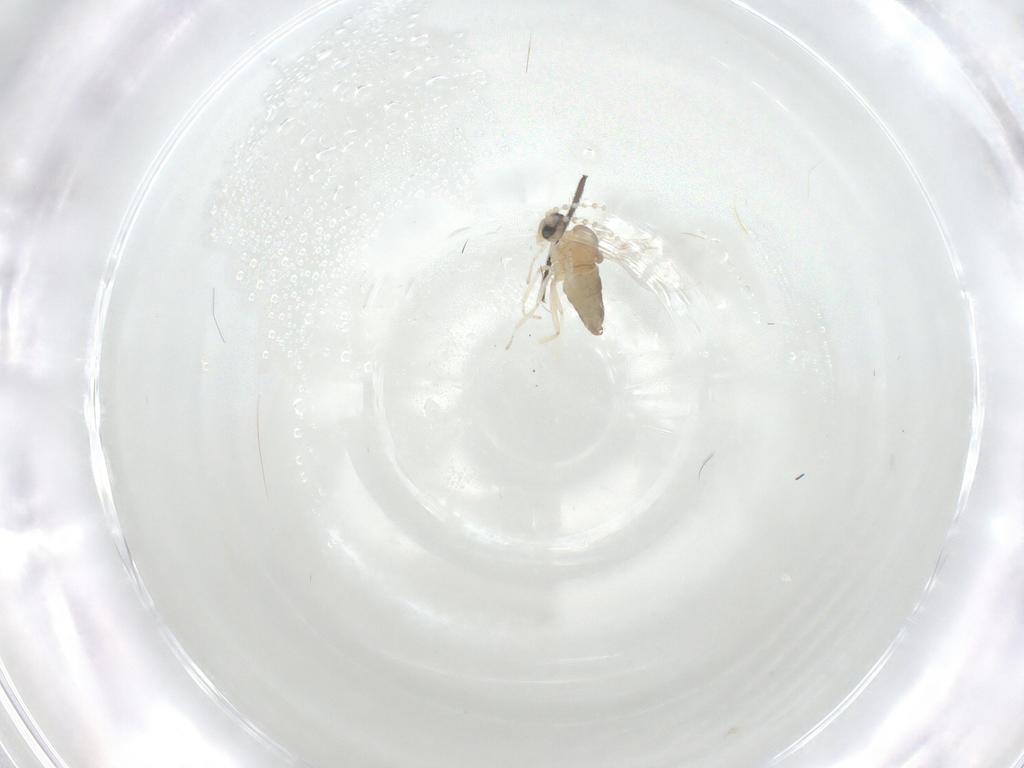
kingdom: Animalia
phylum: Arthropoda
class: Insecta
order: Diptera
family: Cecidomyiidae
